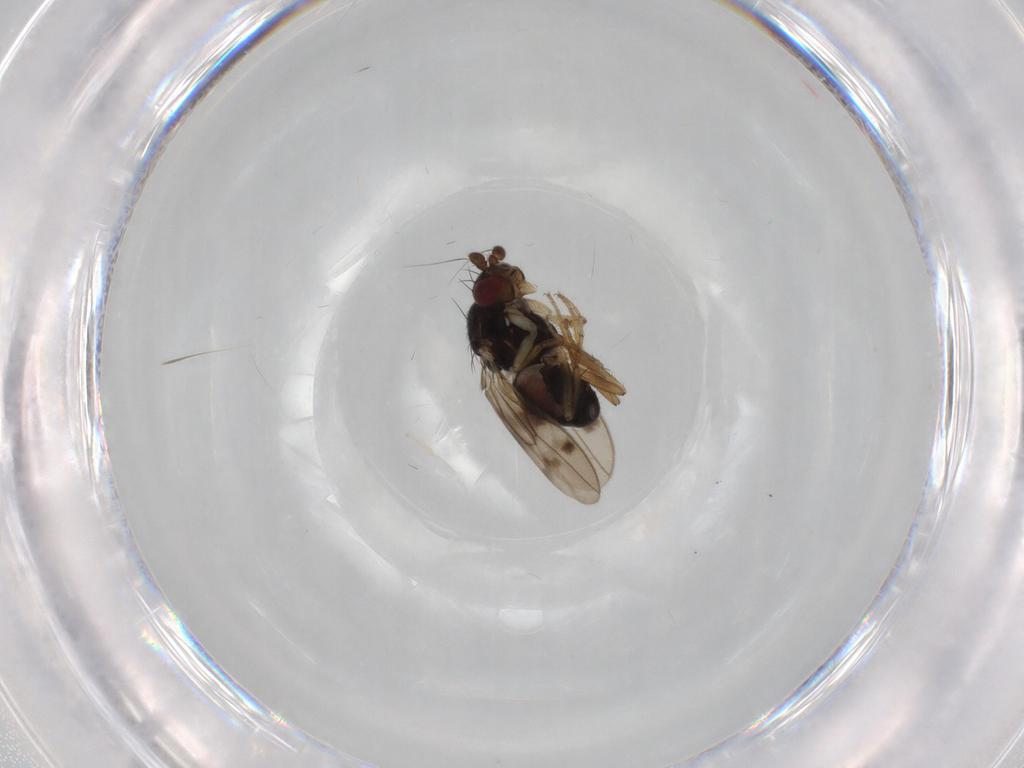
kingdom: Animalia
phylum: Arthropoda
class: Insecta
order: Diptera
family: Sphaeroceridae
